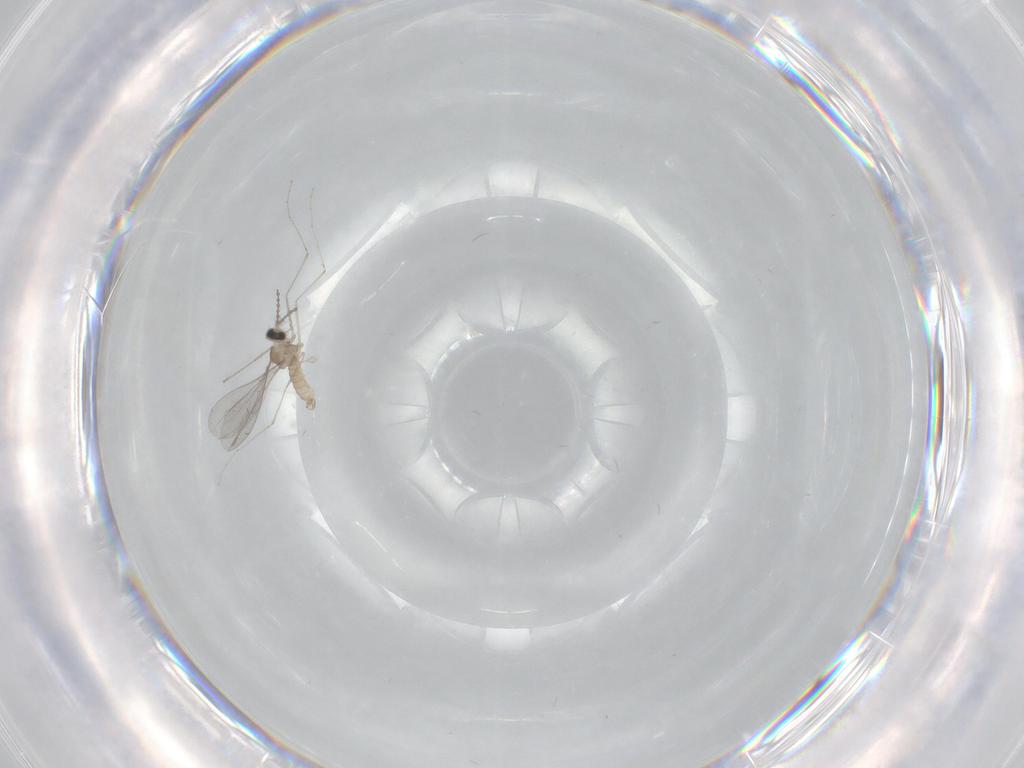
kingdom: Animalia
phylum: Arthropoda
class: Insecta
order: Diptera
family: Cecidomyiidae
